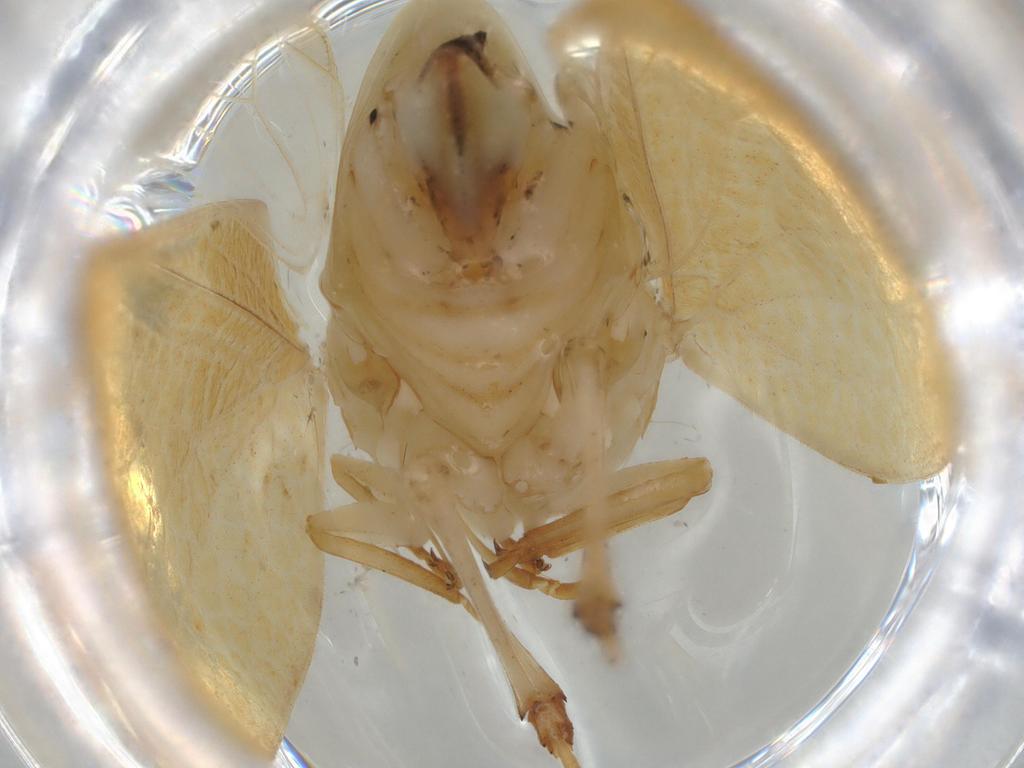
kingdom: Animalia
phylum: Arthropoda
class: Insecta
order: Hemiptera
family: Acanaloniidae
